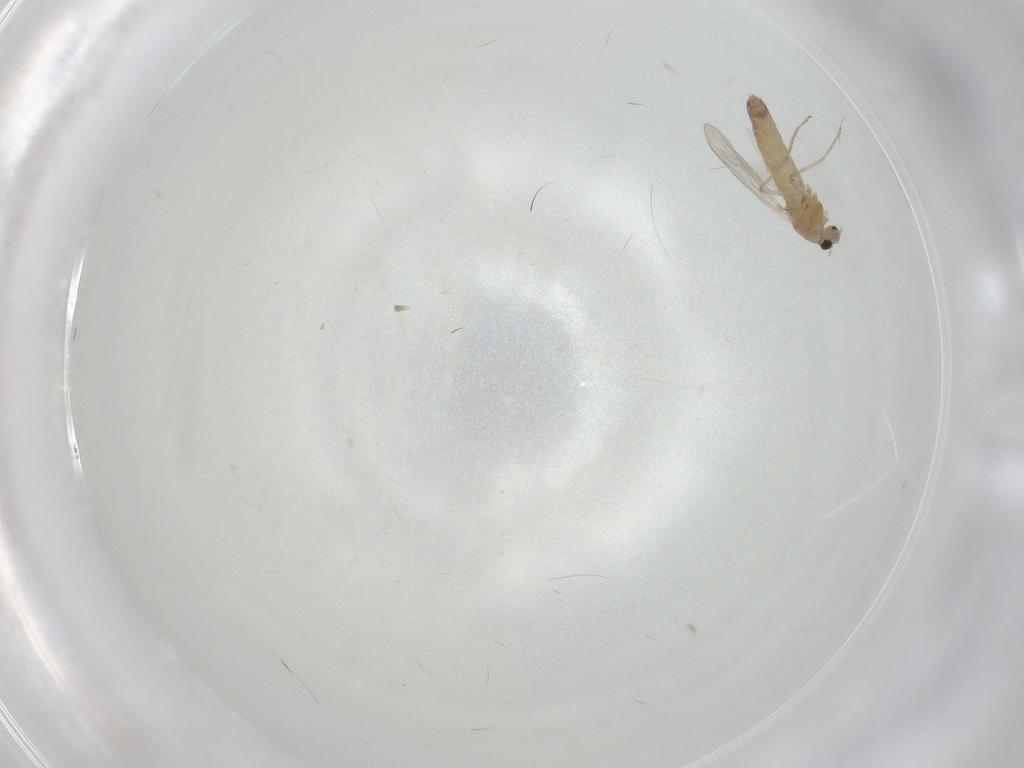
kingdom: Animalia
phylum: Arthropoda
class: Insecta
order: Diptera
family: Chironomidae
